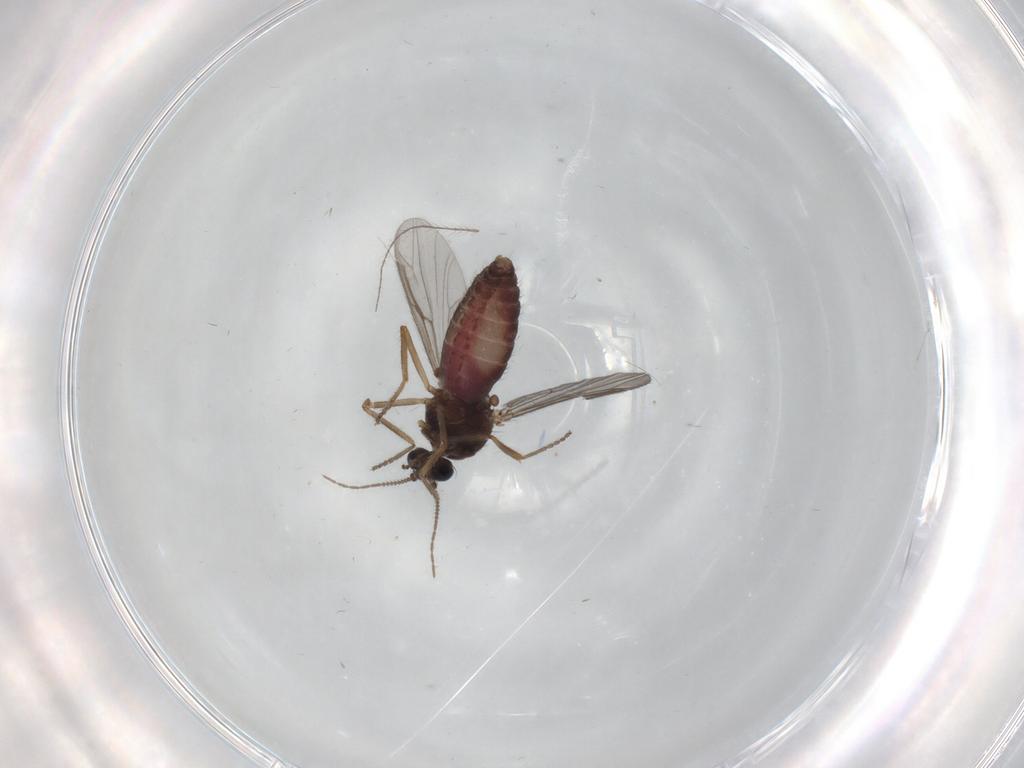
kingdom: Animalia
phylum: Arthropoda
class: Insecta
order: Diptera
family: Ceratopogonidae
